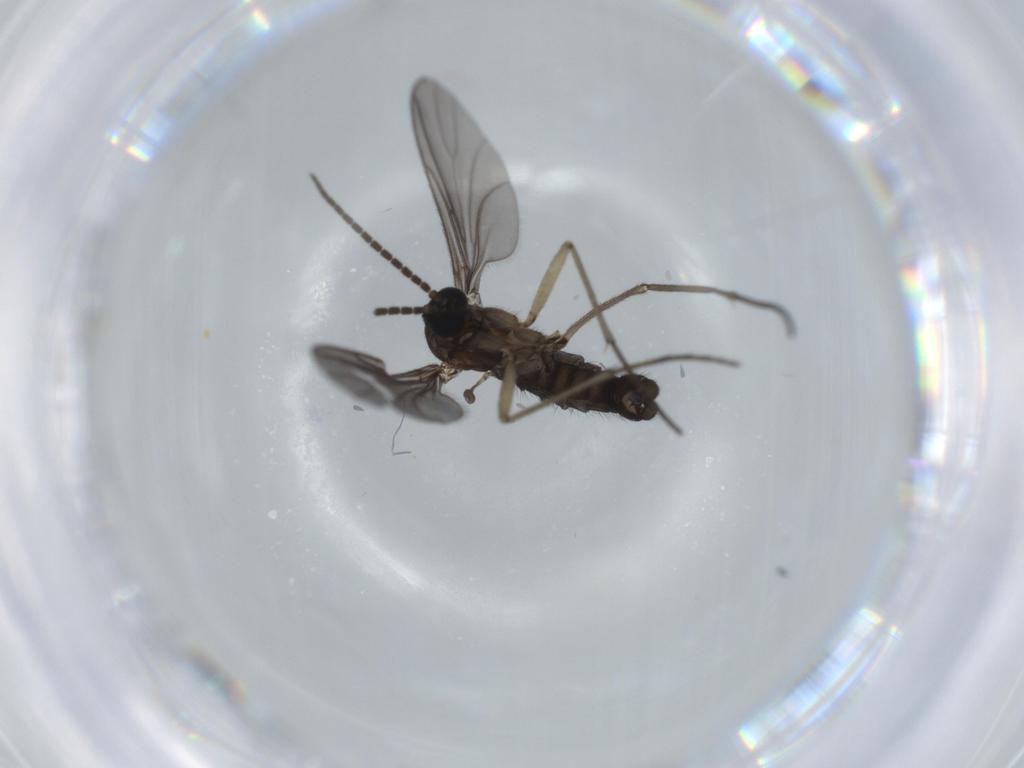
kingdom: Animalia
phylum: Arthropoda
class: Insecta
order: Diptera
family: Sciaridae
